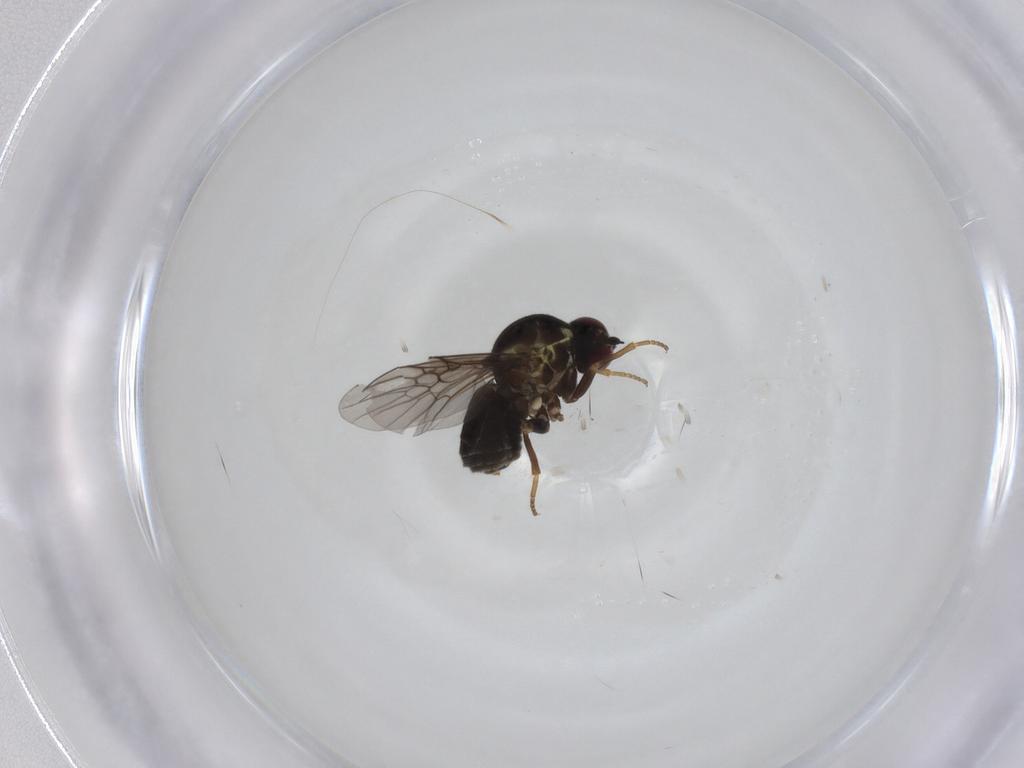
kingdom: Animalia
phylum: Arthropoda
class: Insecta
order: Diptera
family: Bombyliidae
